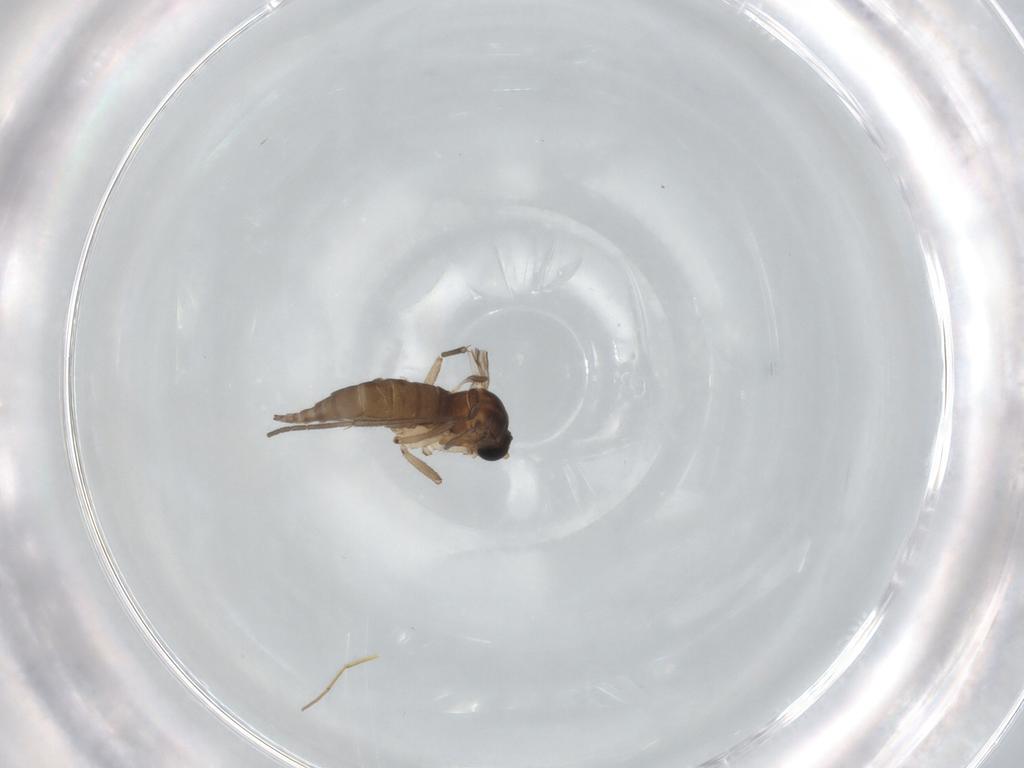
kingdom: Animalia
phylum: Arthropoda
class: Insecta
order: Diptera
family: Sciaridae
